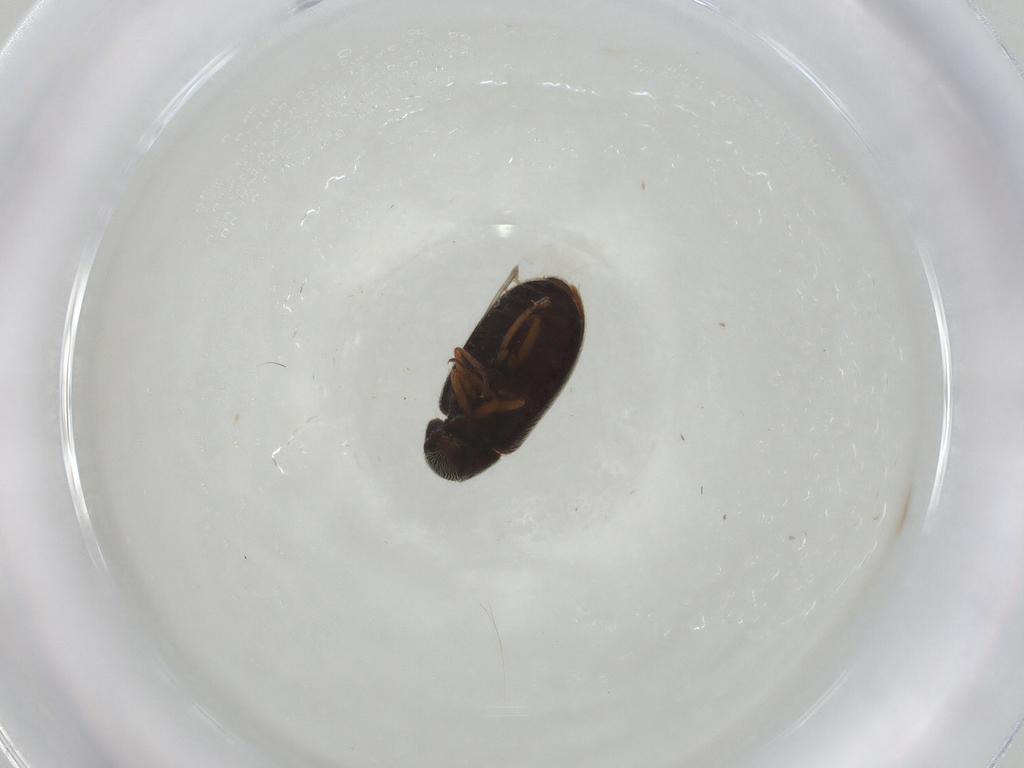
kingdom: Animalia
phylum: Arthropoda
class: Insecta
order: Coleoptera
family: Rhadalidae
